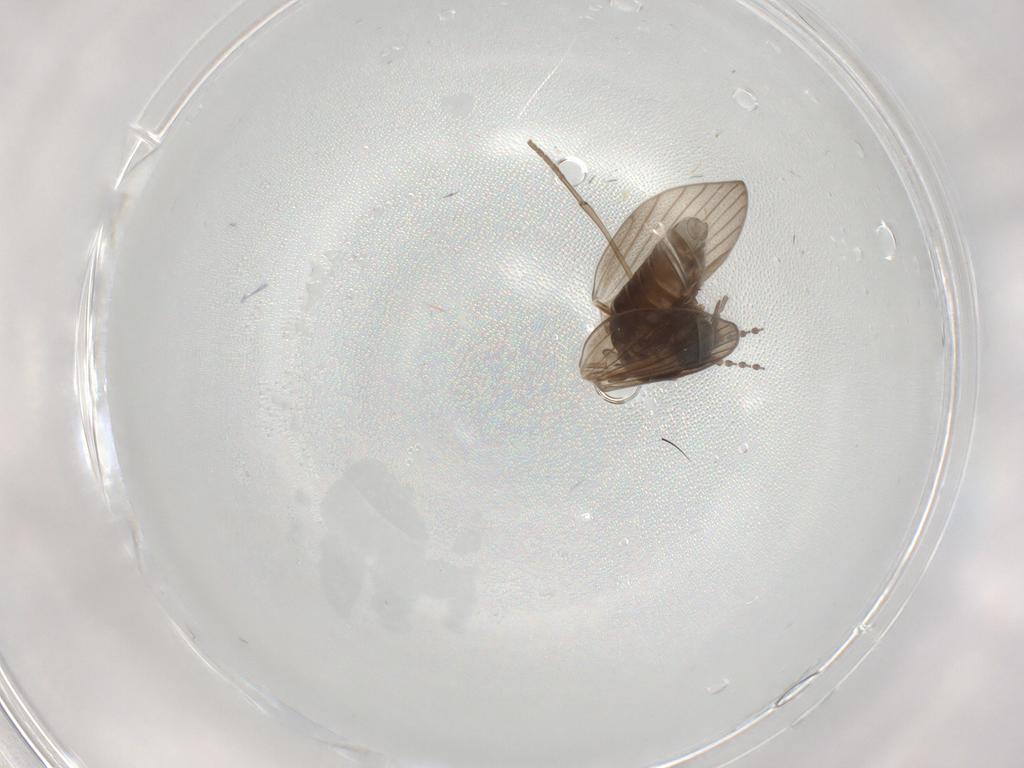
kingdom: Animalia
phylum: Arthropoda
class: Insecta
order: Diptera
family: Psychodidae
